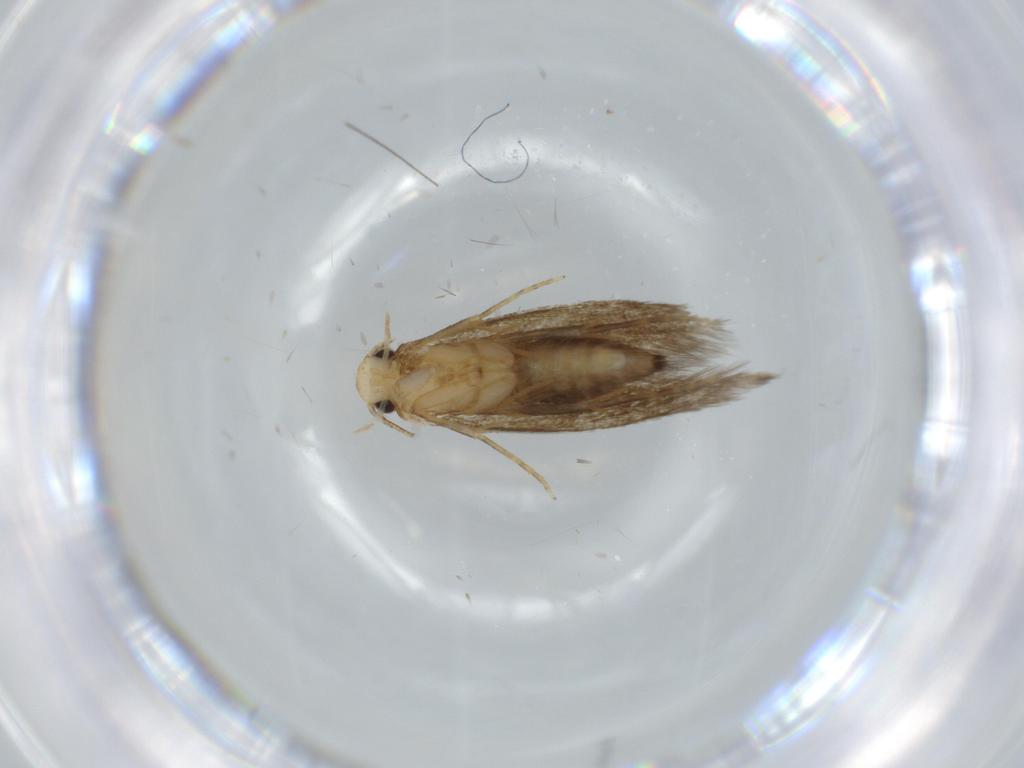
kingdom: Animalia
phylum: Arthropoda
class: Insecta
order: Lepidoptera
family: Tineidae
